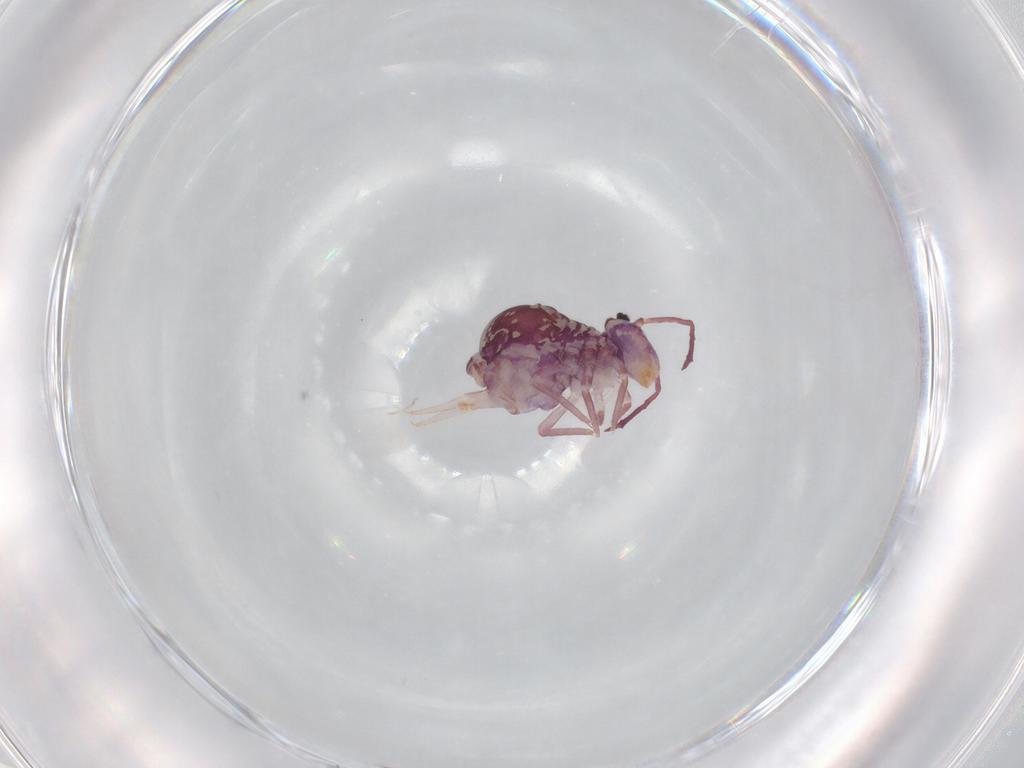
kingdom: Animalia
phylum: Arthropoda
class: Collembola
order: Symphypleona
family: Dicyrtomidae
